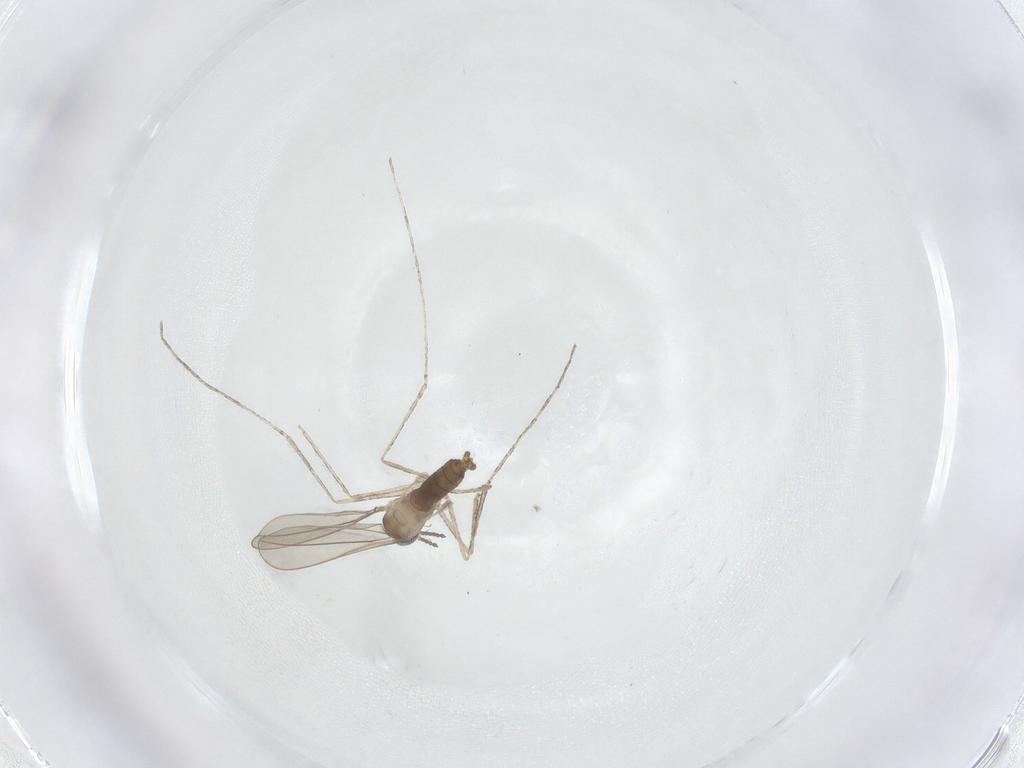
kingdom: Animalia
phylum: Arthropoda
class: Insecta
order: Diptera
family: Cecidomyiidae
